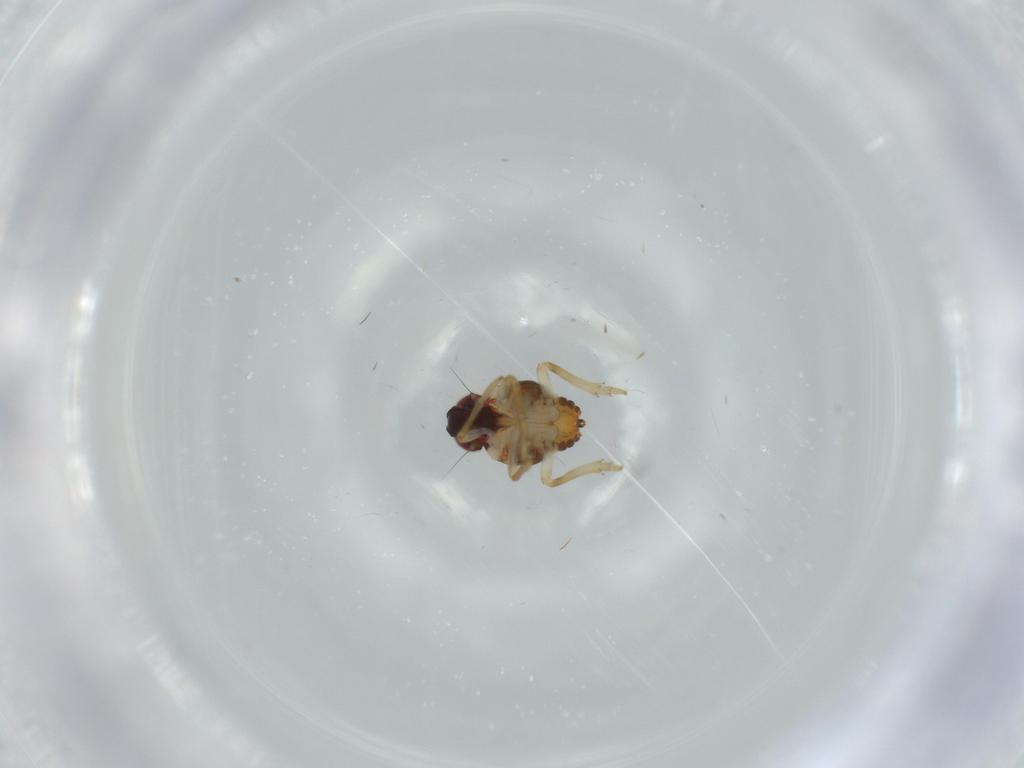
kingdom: Animalia
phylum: Arthropoda
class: Insecta
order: Hemiptera
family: Issidae
